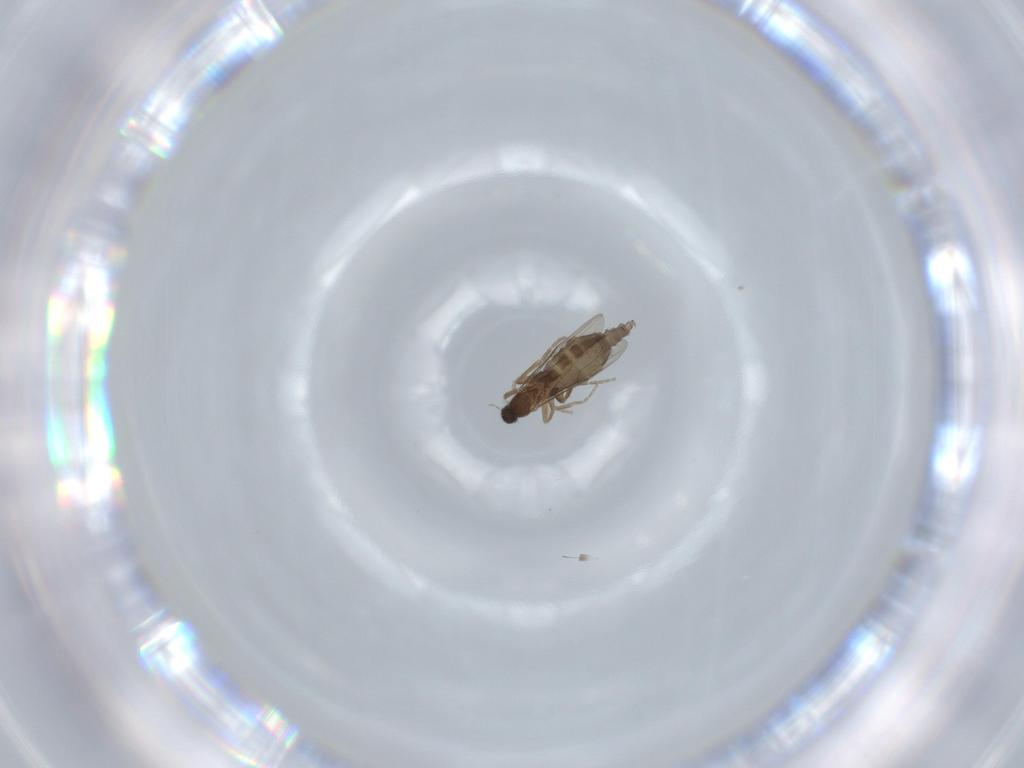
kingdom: Animalia
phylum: Arthropoda
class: Insecta
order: Diptera
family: Phoridae
